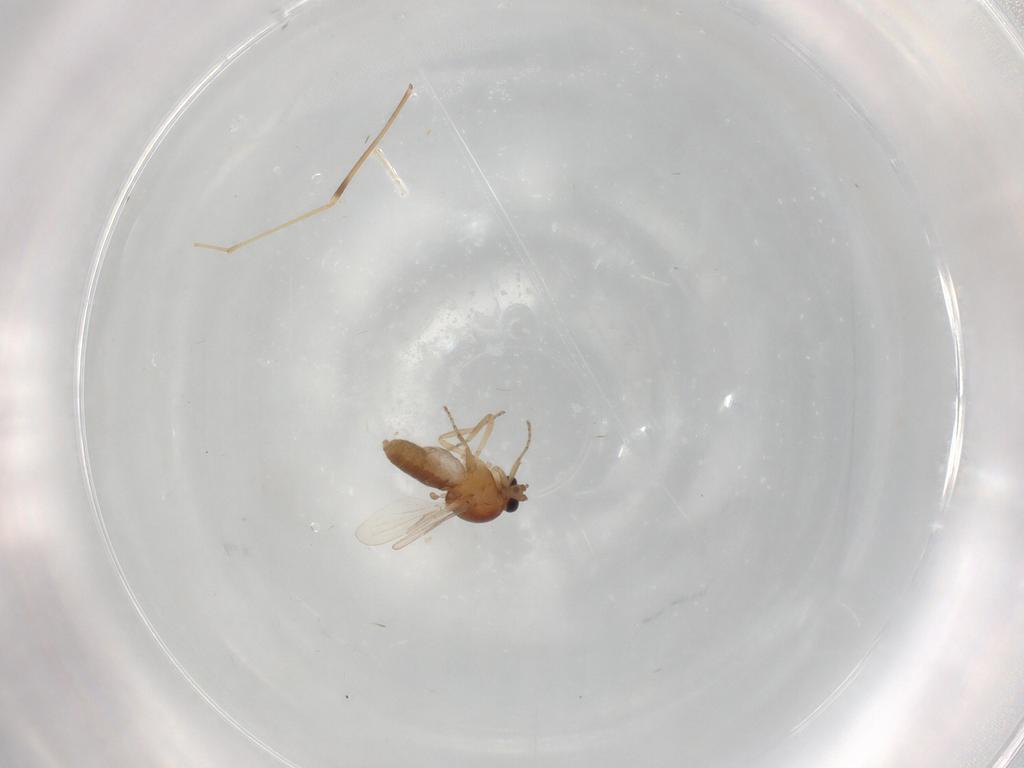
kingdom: Animalia
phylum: Arthropoda
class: Insecta
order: Diptera
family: Ceratopogonidae
